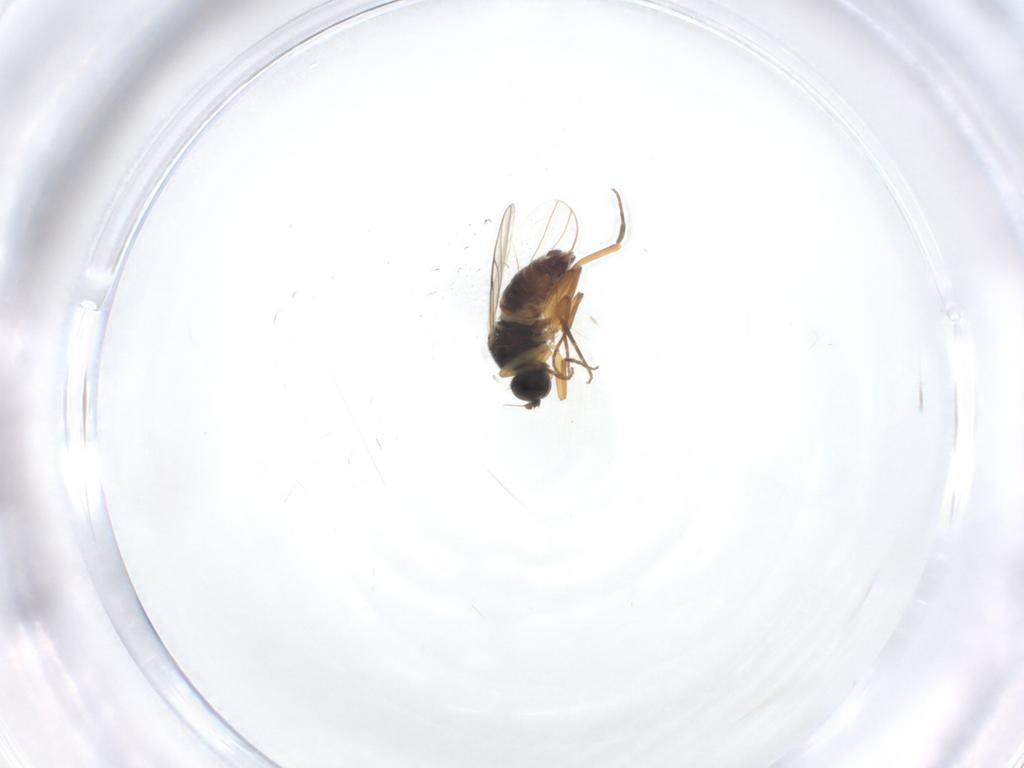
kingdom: Animalia
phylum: Arthropoda
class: Insecta
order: Diptera
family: Hybotidae
